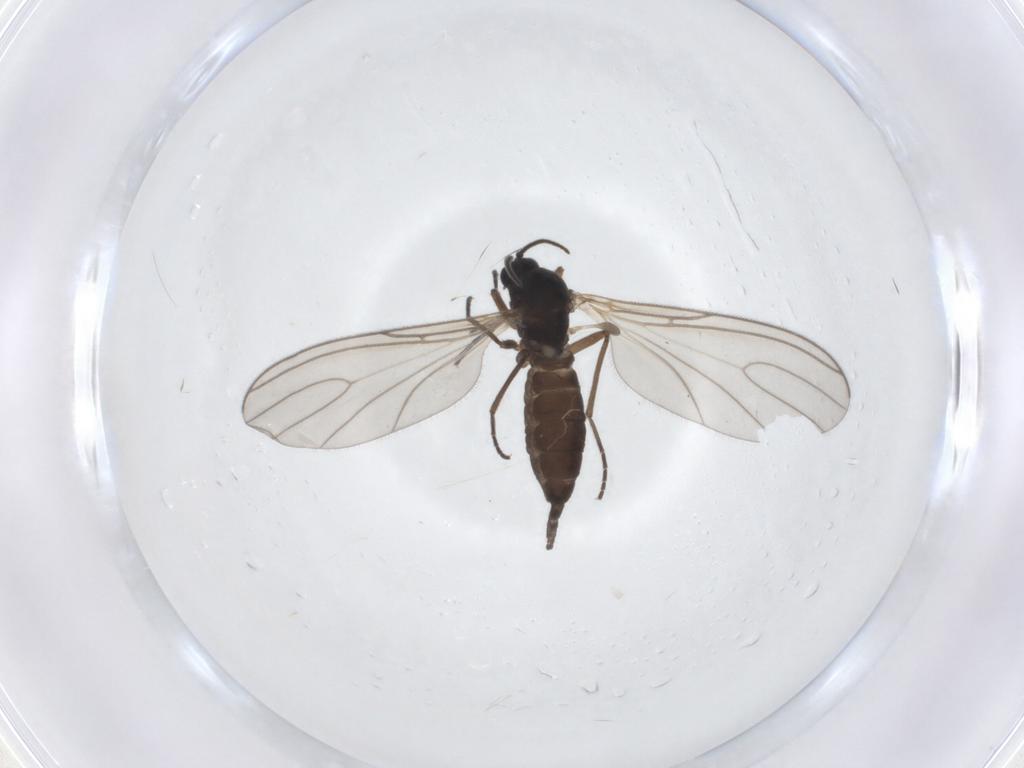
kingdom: Animalia
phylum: Arthropoda
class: Insecta
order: Diptera
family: Sciaridae
